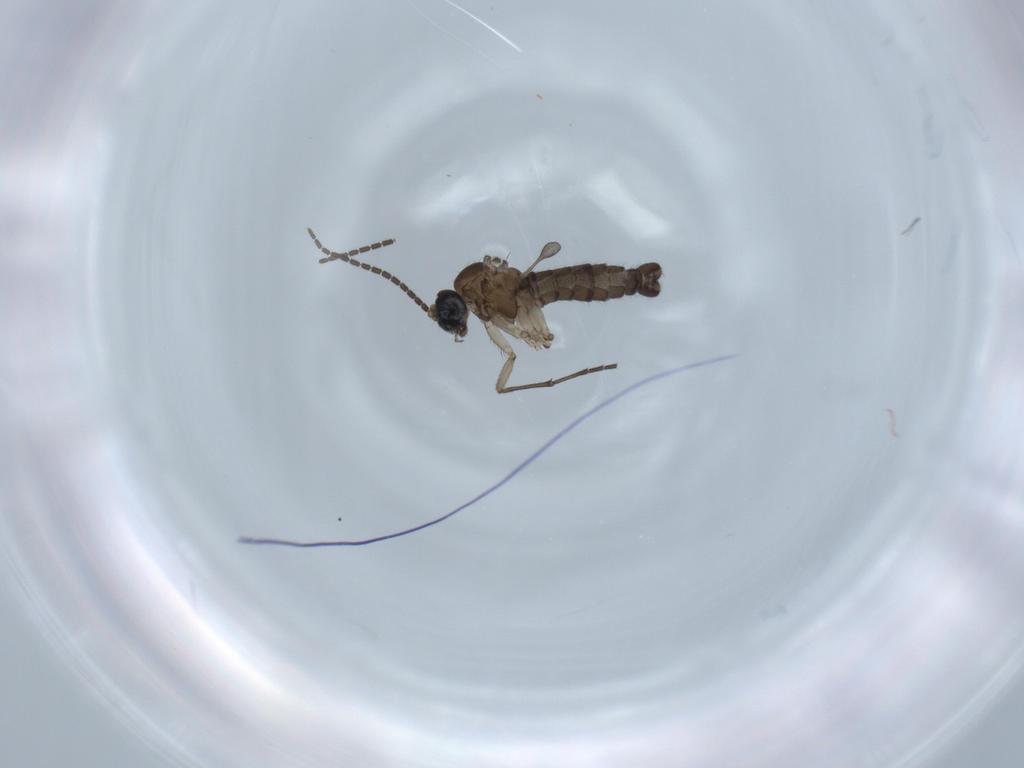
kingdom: Animalia
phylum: Arthropoda
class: Insecta
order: Diptera
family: Sciaridae
